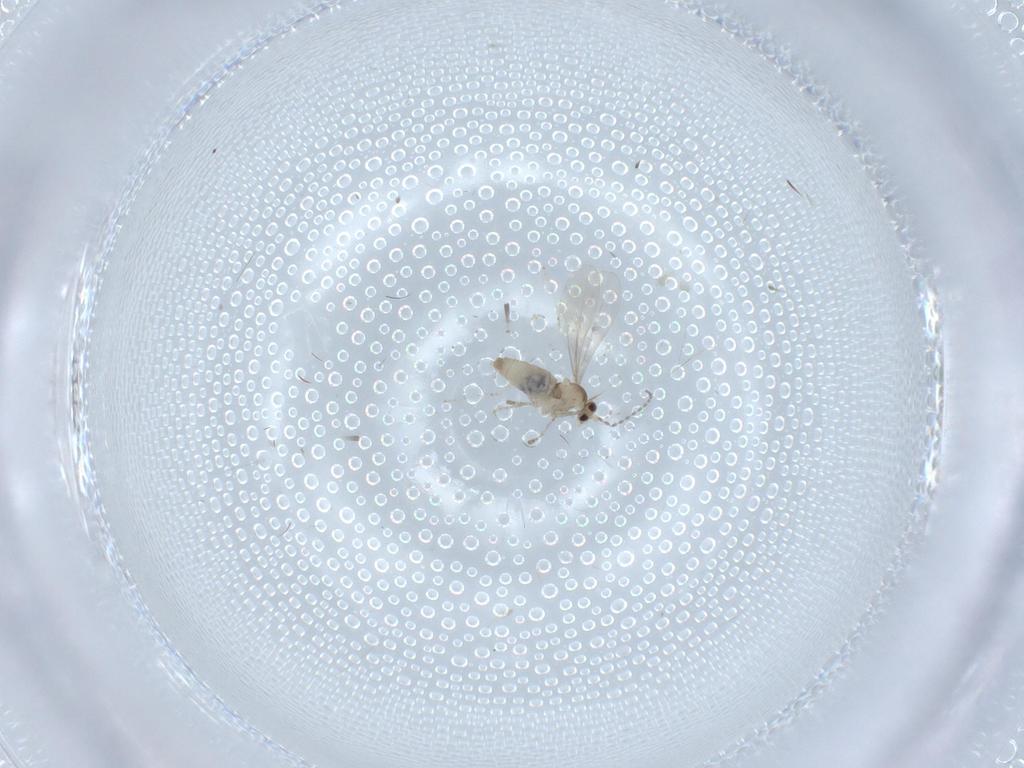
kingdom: Animalia
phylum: Arthropoda
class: Insecta
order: Diptera
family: Cecidomyiidae
